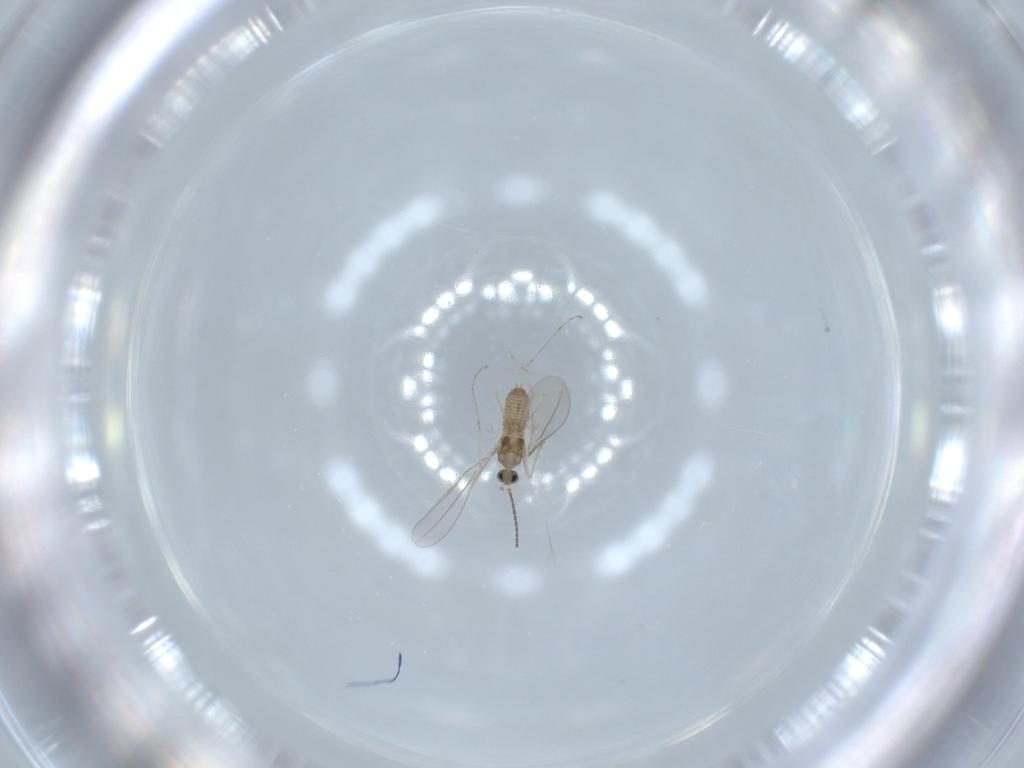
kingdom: Animalia
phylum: Arthropoda
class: Insecta
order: Diptera
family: Cecidomyiidae
